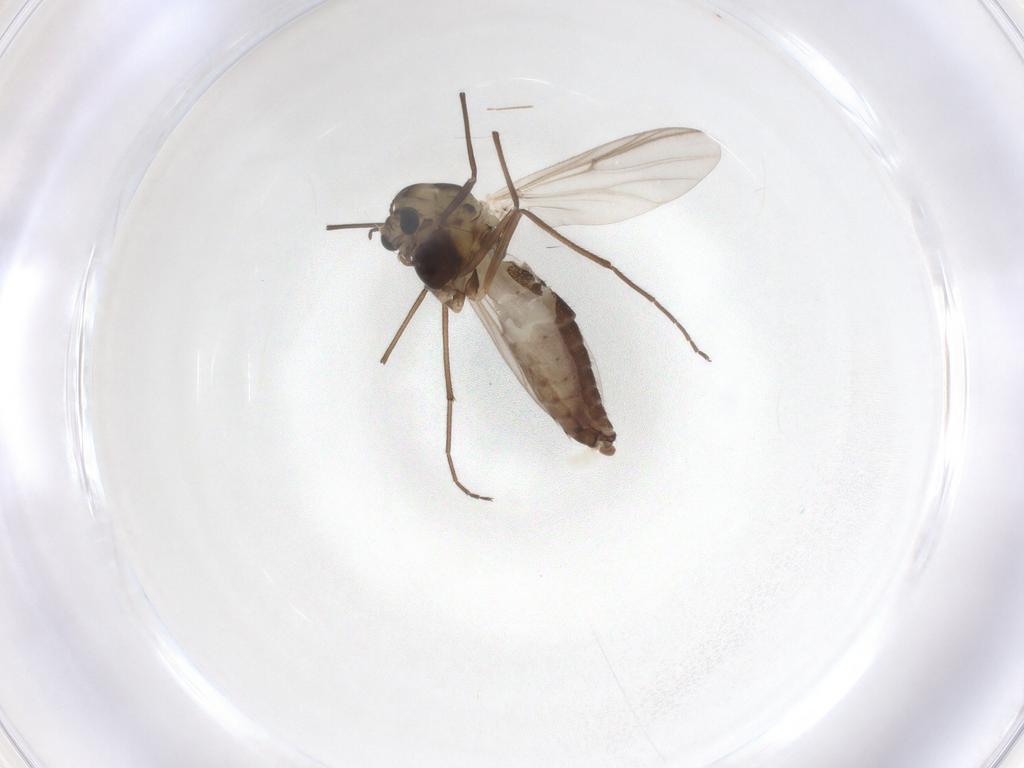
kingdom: Animalia
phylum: Arthropoda
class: Insecta
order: Diptera
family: Chironomidae
